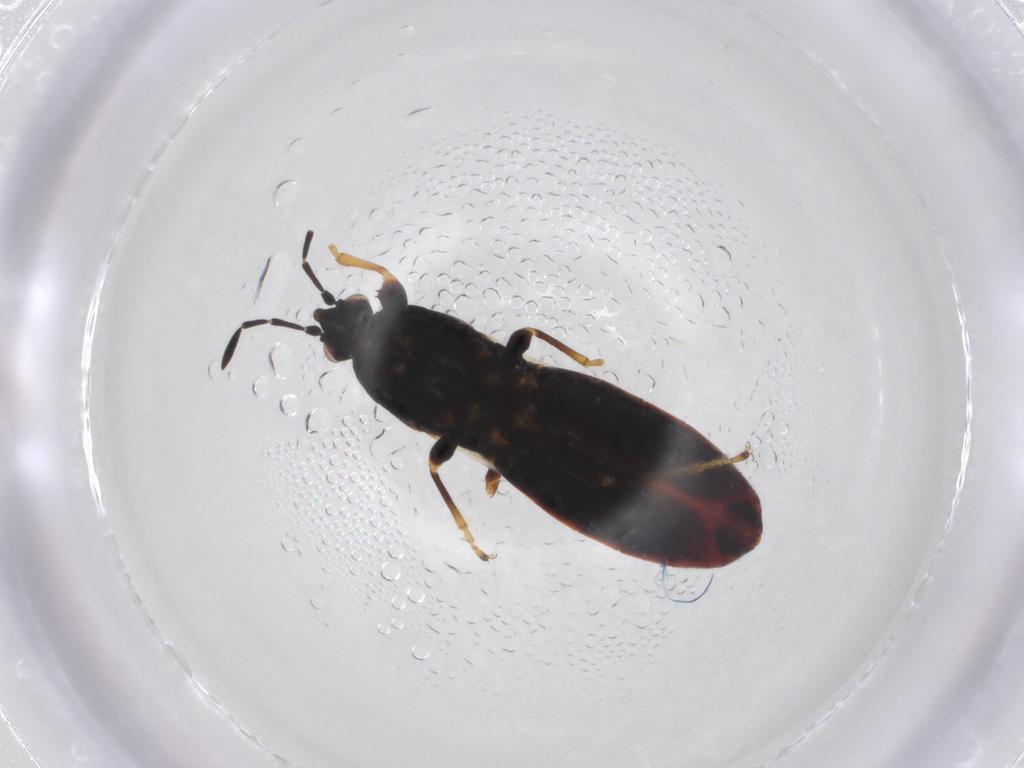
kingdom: Animalia
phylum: Arthropoda
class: Insecta
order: Hemiptera
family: Blissidae
